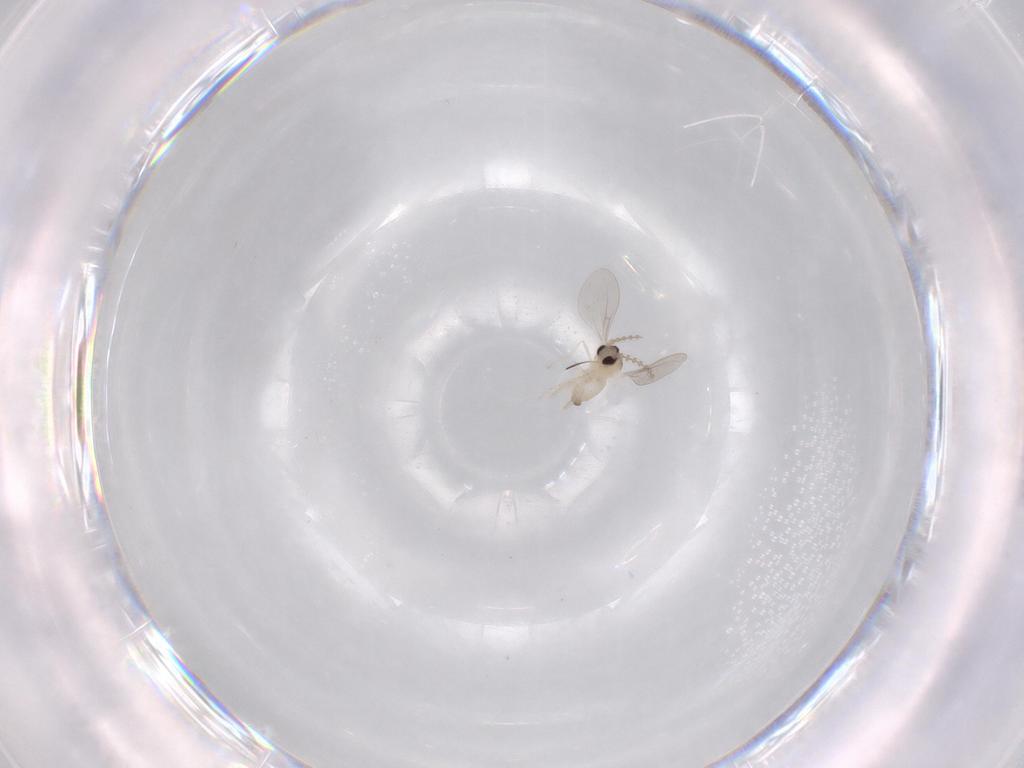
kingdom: Animalia
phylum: Arthropoda
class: Insecta
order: Diptera
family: Cecidomyiidae
